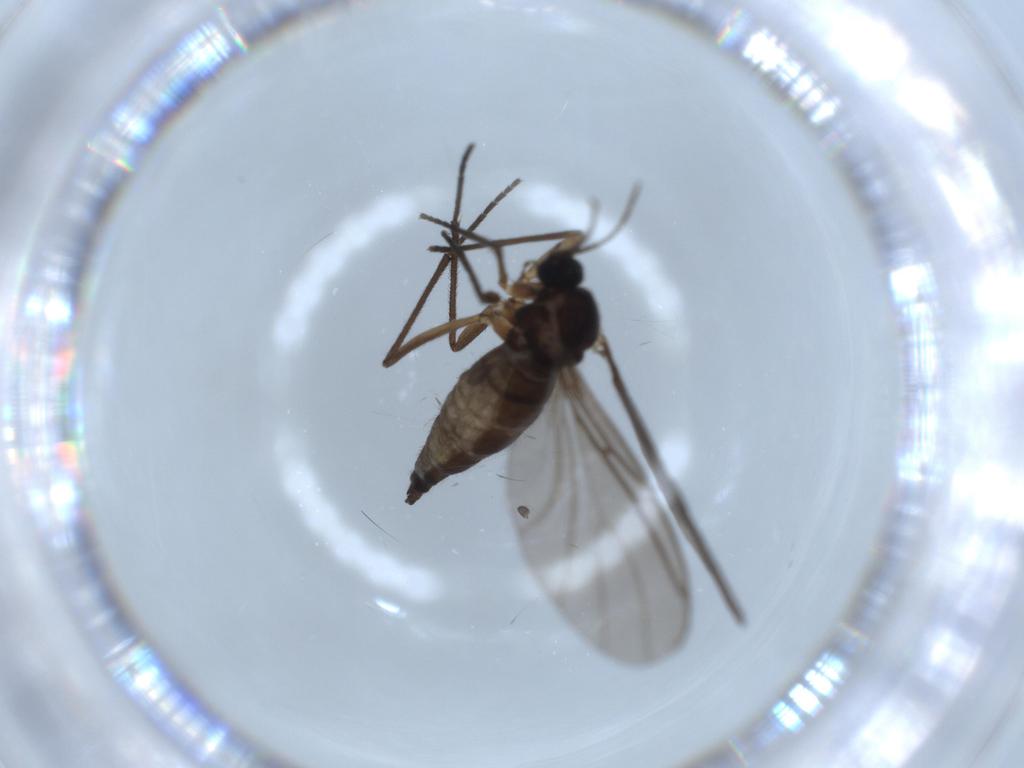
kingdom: Animalia
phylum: Arthropoda
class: Insecta
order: Diptera
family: Sciaridae
